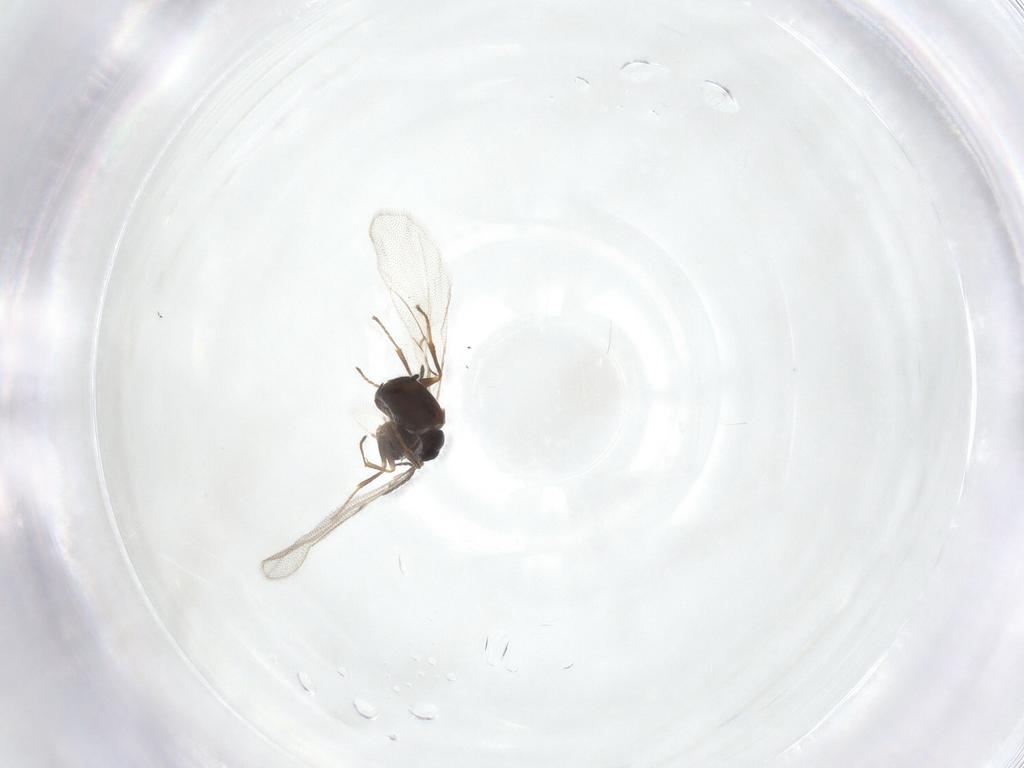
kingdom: Animalia
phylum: Arthropoda
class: Insecta
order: Hymenoptera
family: Cynipidae
